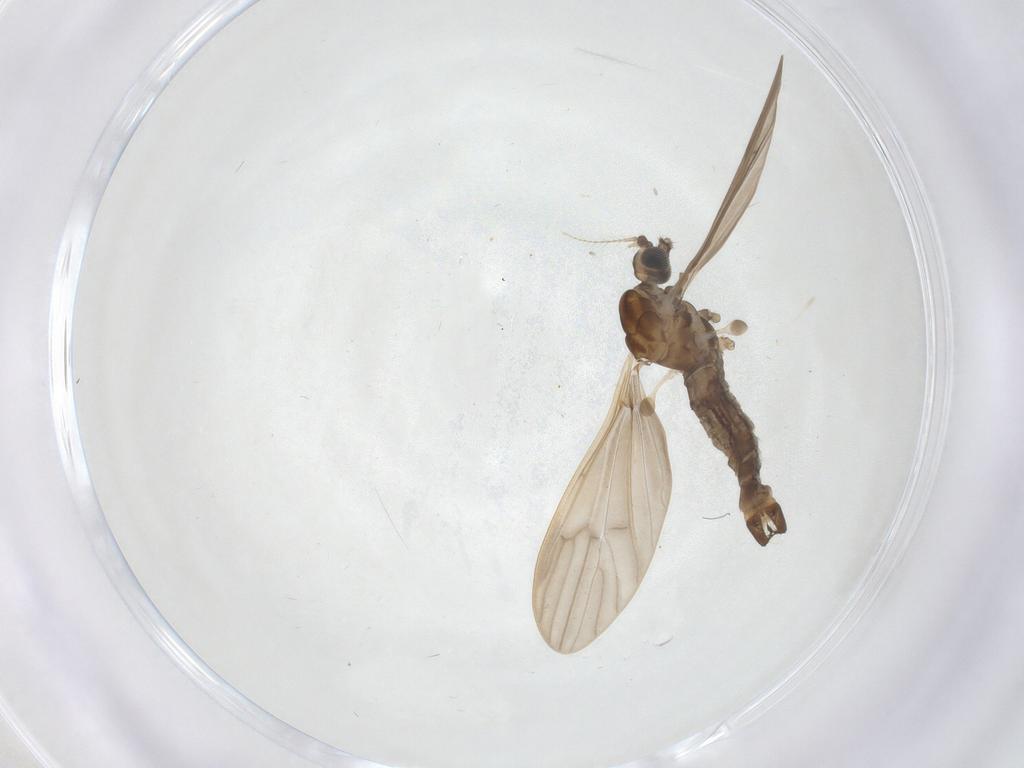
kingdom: Animalia
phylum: Arthropoda
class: Insecta
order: Diptera
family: Limoniidae
